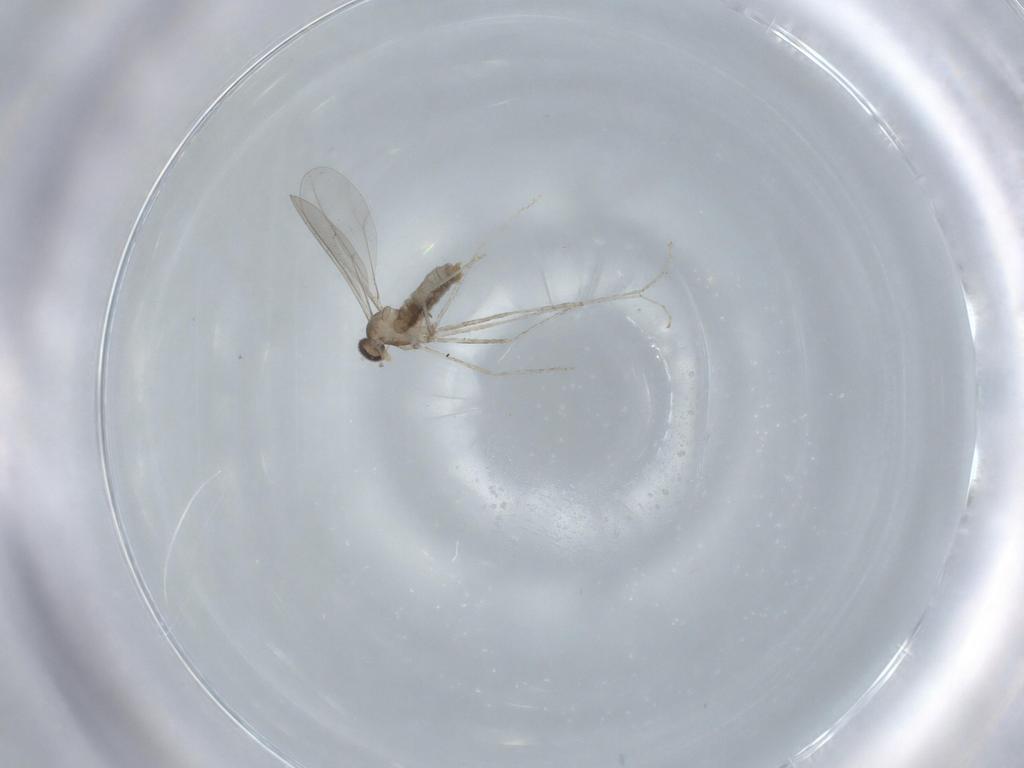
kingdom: Animalia
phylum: Arthropoda
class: Insecta
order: Diptera
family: Cecidomyiidae
